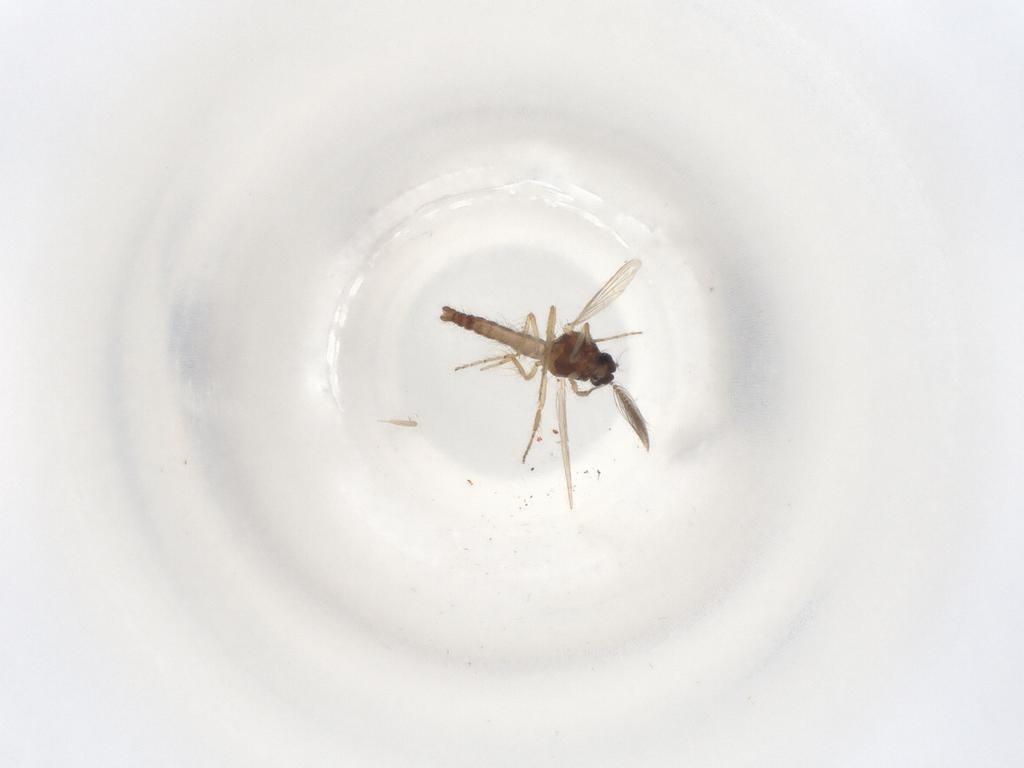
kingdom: Animalia
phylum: Arthropoda
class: Insecta
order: Diptera
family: Ceratopogonidae
